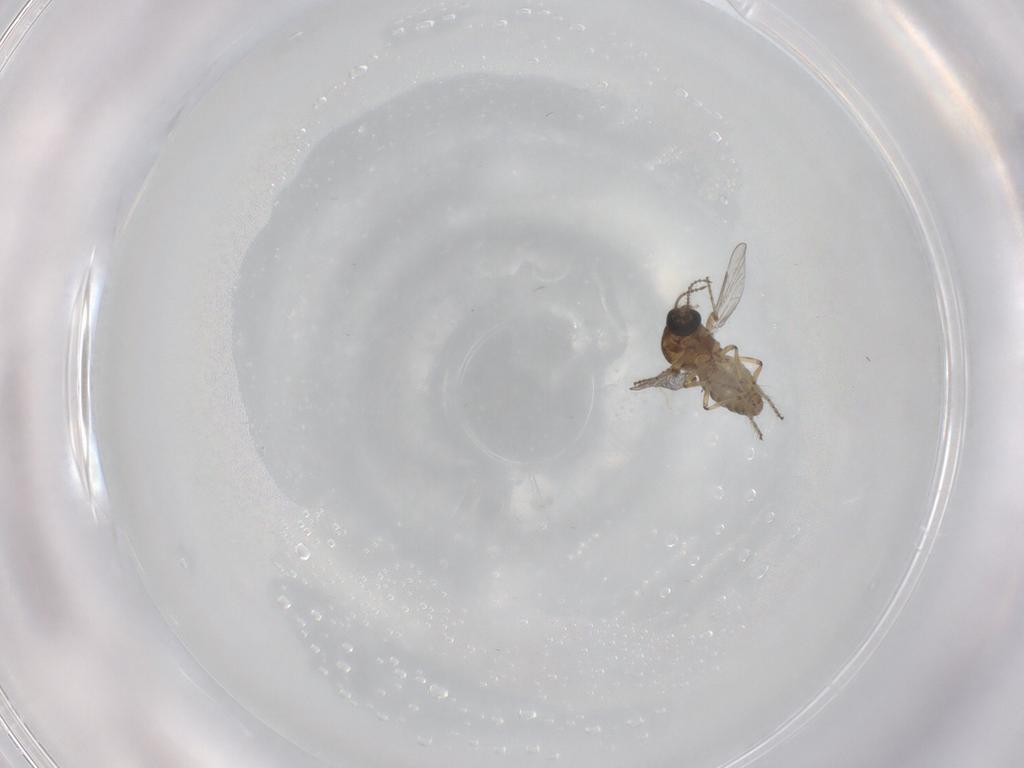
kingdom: Animalia
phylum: Arthropoda
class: Insecta
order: Diptera
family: Ceratopogonidae
